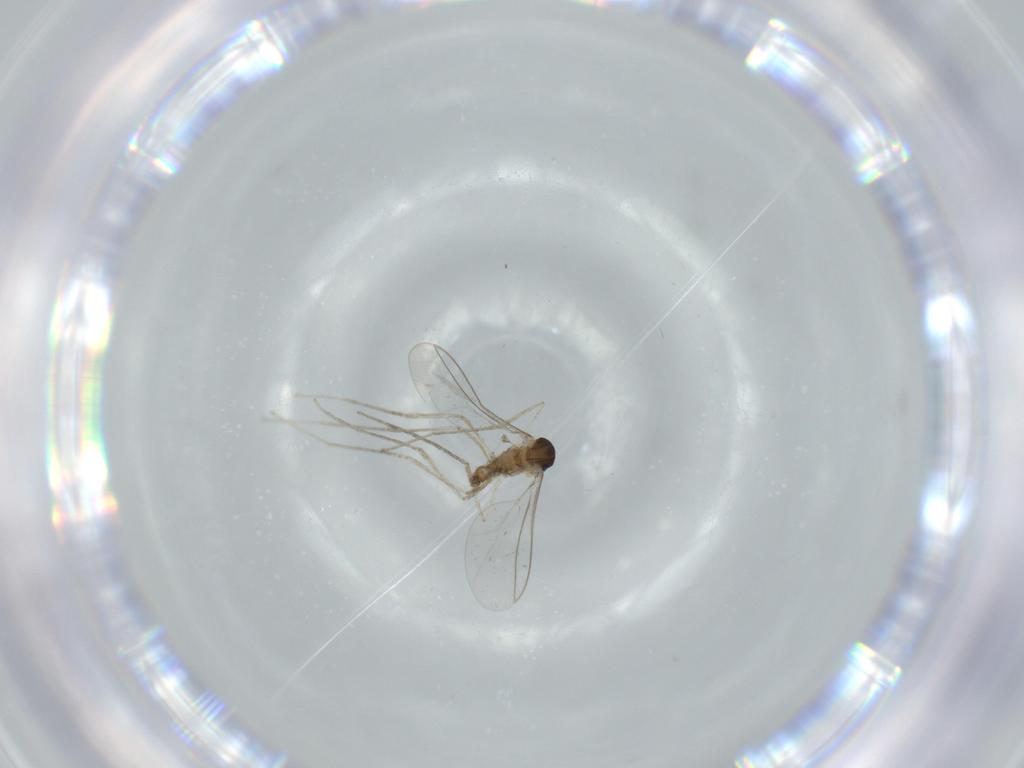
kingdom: Animalia
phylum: Arthropoda
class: Insecta
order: Diptera
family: Cecidomyiidae
